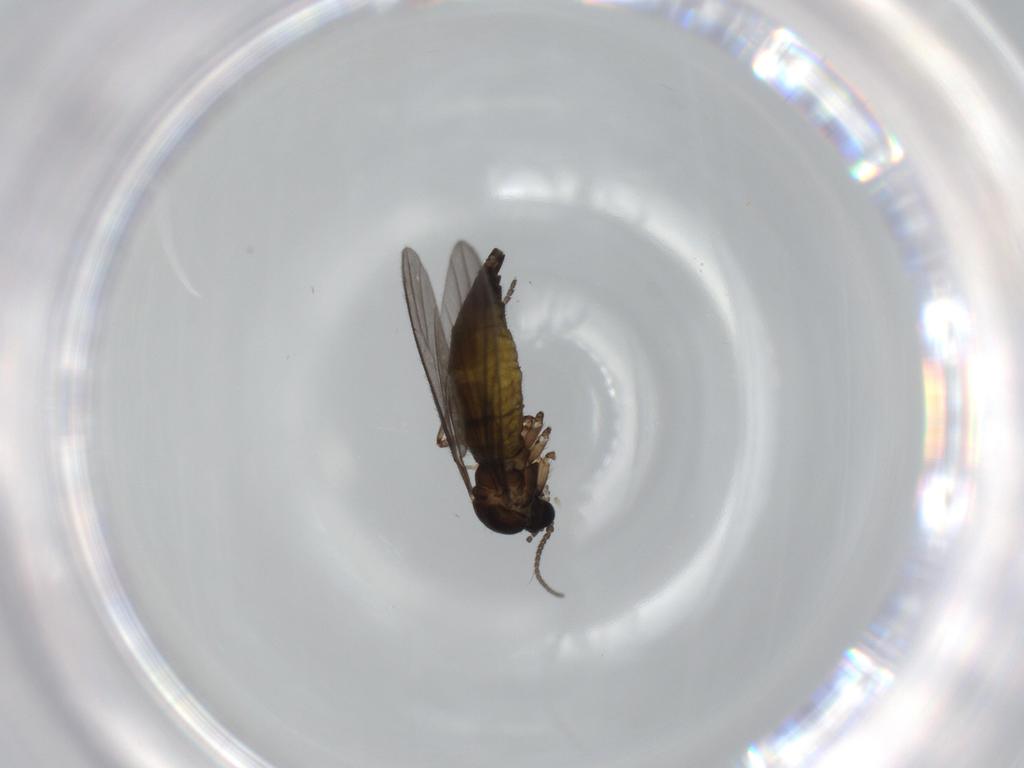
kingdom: Animalia
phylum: Arthropoda
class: Insecta
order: Diptera
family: Sciaridae
